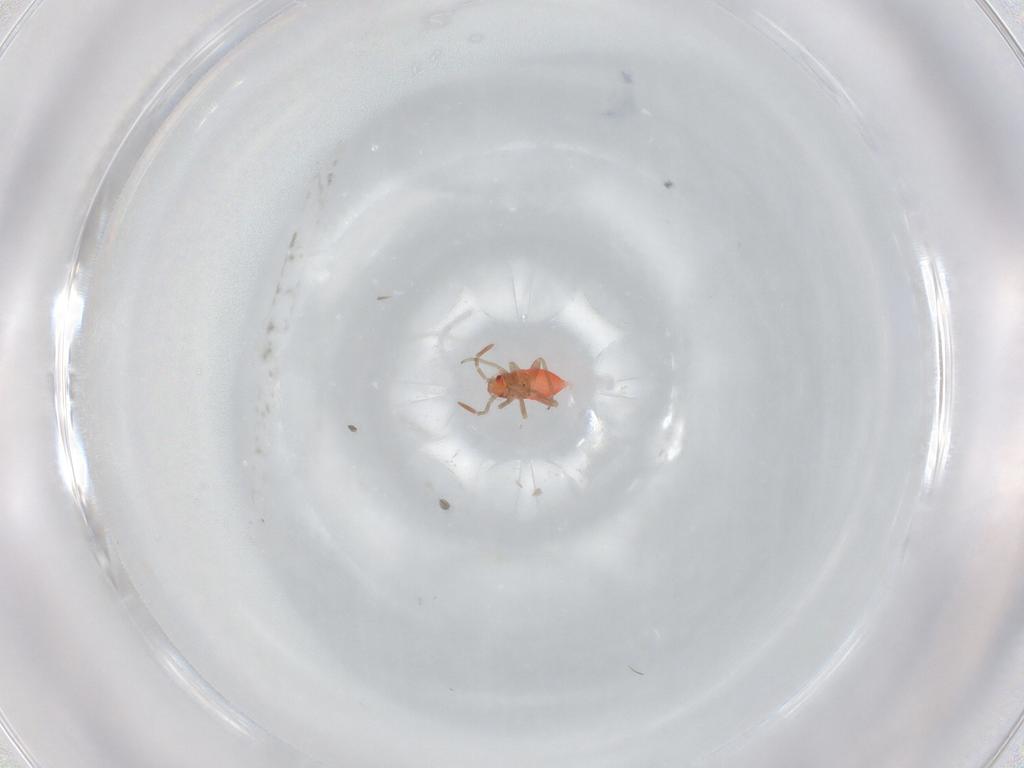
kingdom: Animalia
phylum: Arthropoda
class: Insecta
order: Hemiptera
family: Miridae
